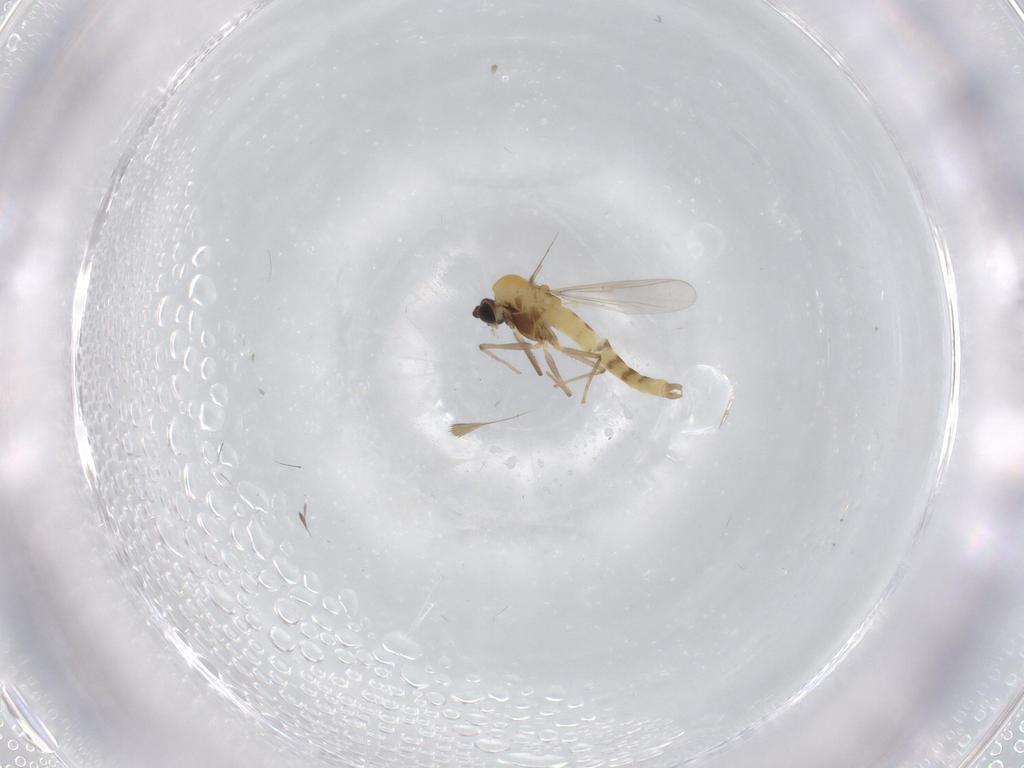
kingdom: Animalia
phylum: Arthropoda
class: Insecta
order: Diptera
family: Chironomidae
